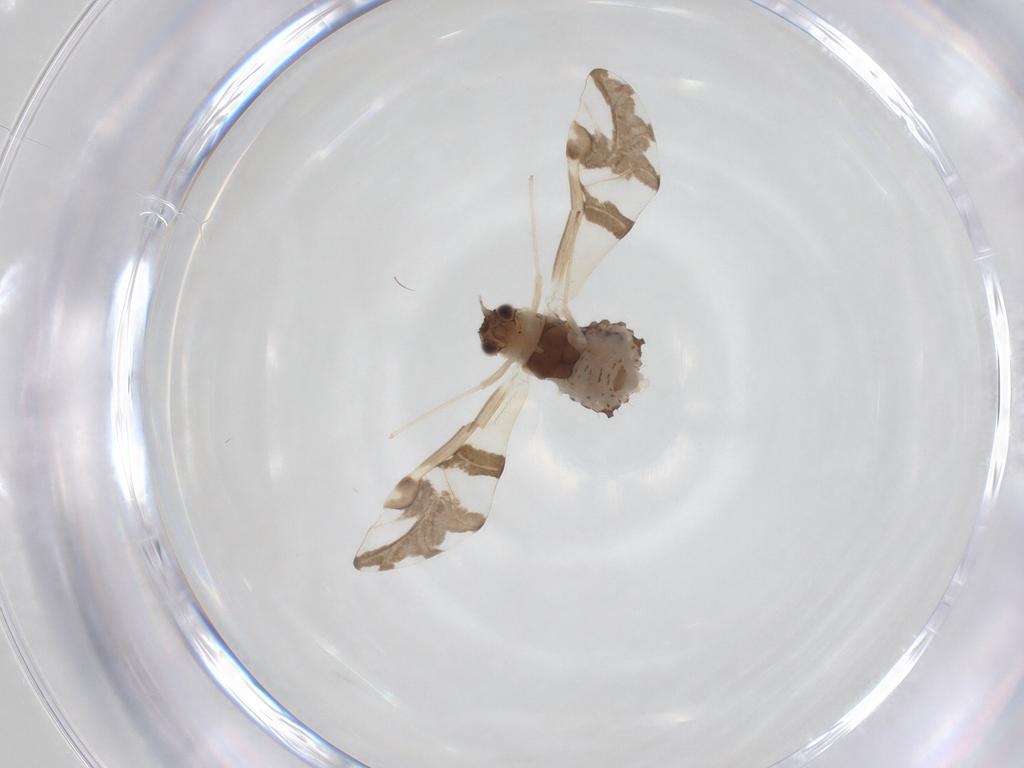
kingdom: Animalia
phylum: Arthropoda
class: Insecta
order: Hemiptera
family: Aphididae
